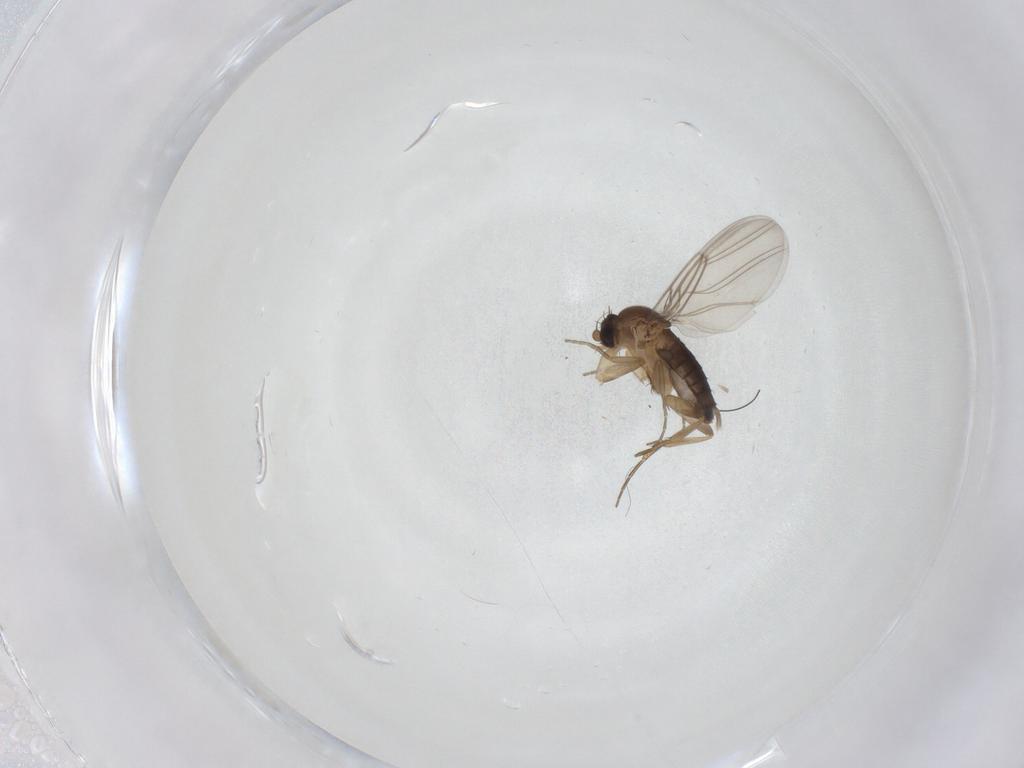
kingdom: Animalia
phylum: Arthropoda
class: Insecta
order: Diptera
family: Phoridae
